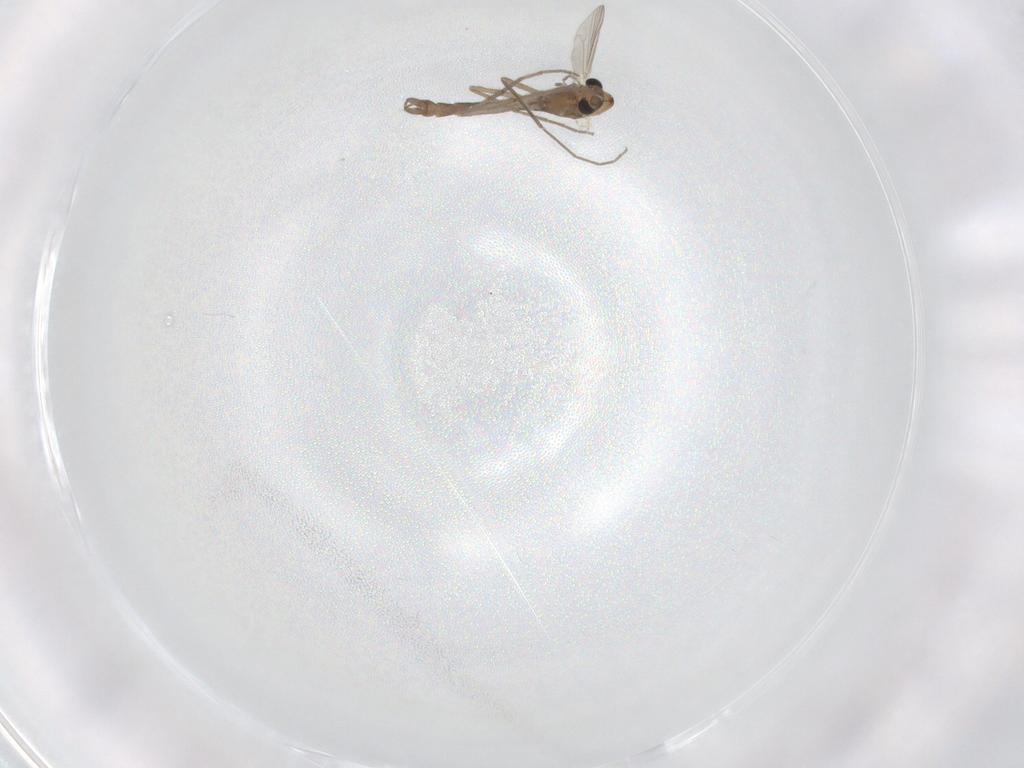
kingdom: Animalia
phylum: Arthropoda
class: Insecta
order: Diptera
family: Chironomidae
